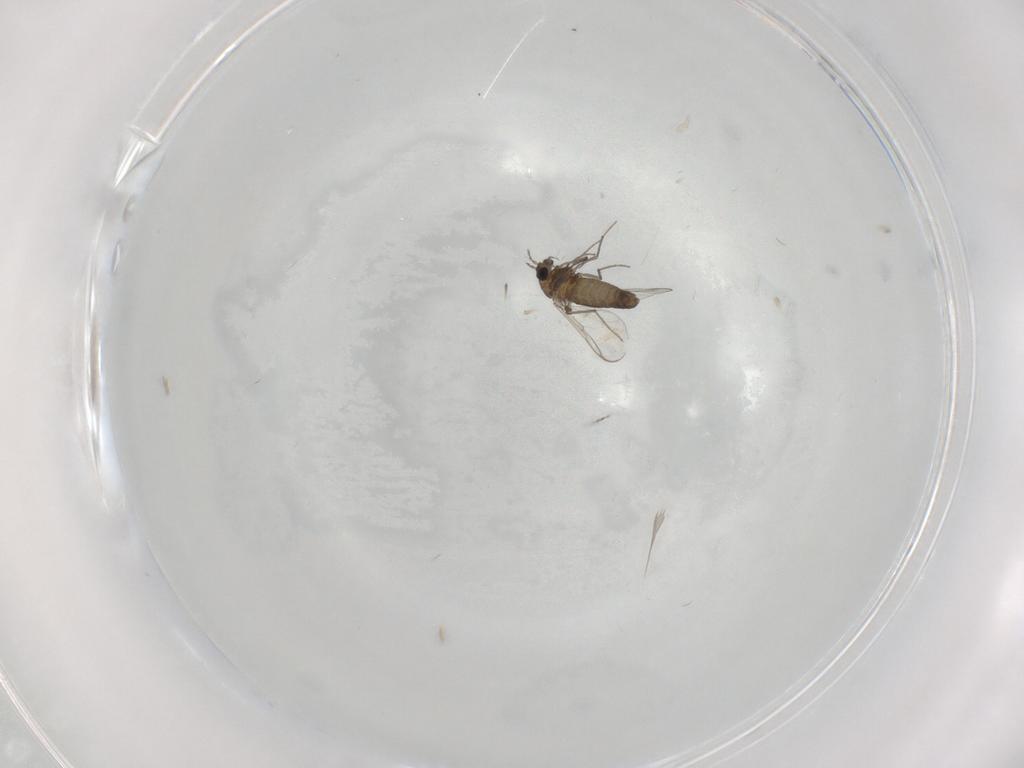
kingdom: Animalia
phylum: Arthropoda
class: Insecta
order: Diptera
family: Chironomidae
